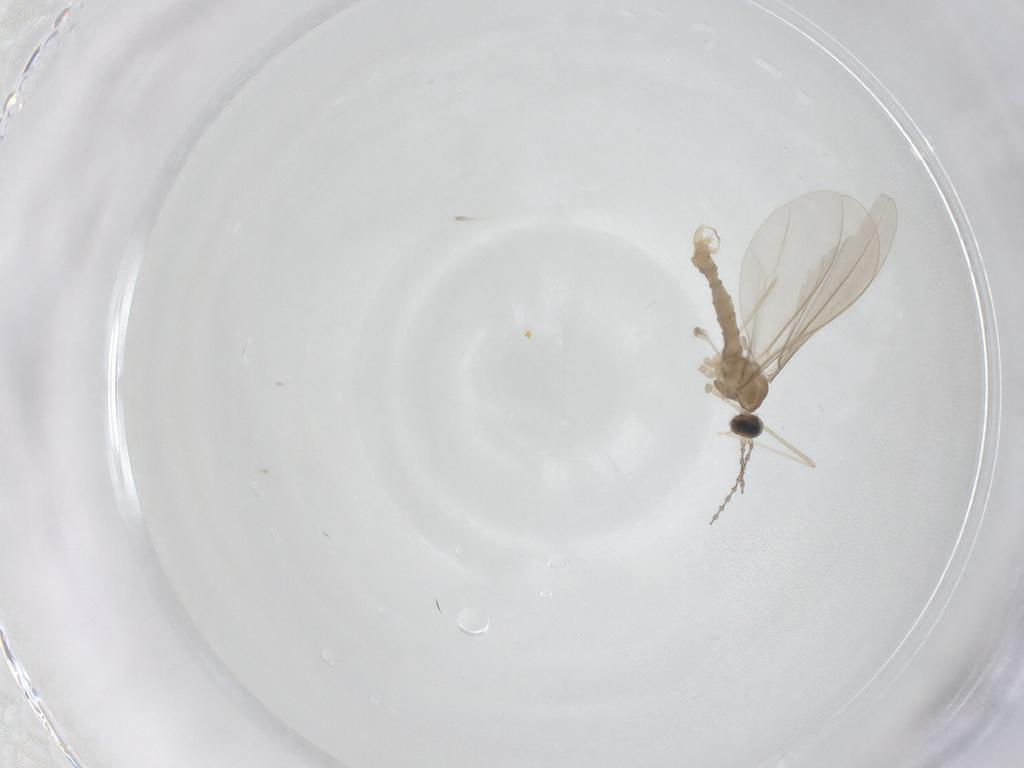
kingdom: Animalia
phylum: Arthropoda
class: Insecta
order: Diptera
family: Cecidomyiidae
